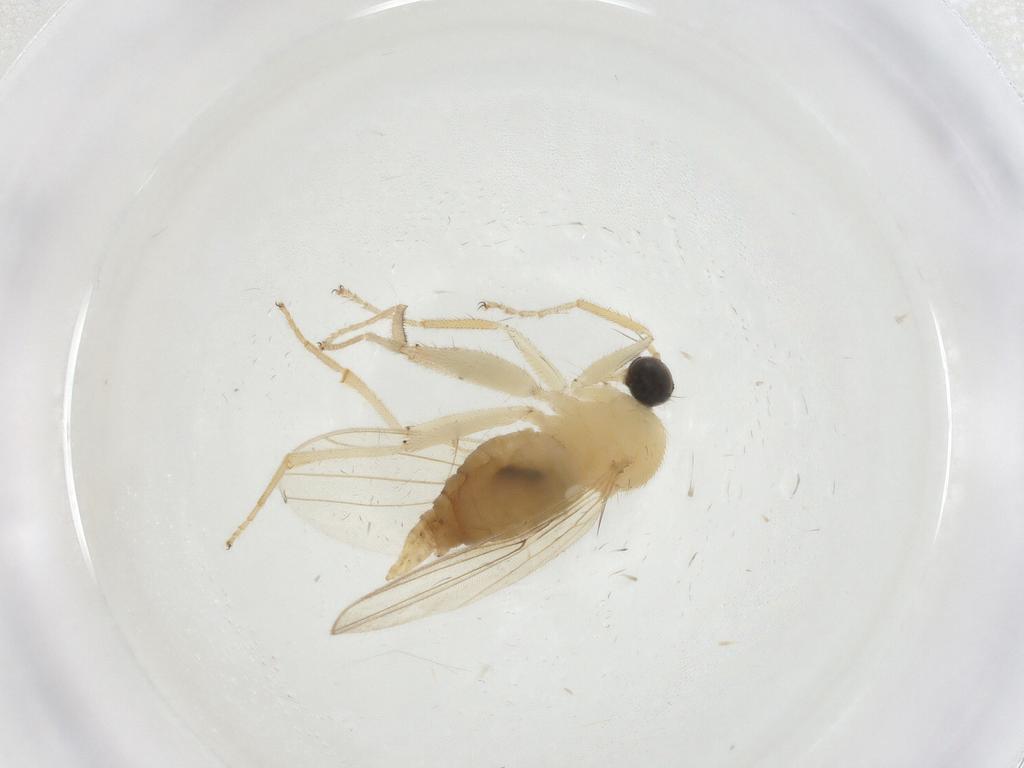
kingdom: Animalia
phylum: Arthropoda
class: Insecta
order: Diptera
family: Hybotidae
